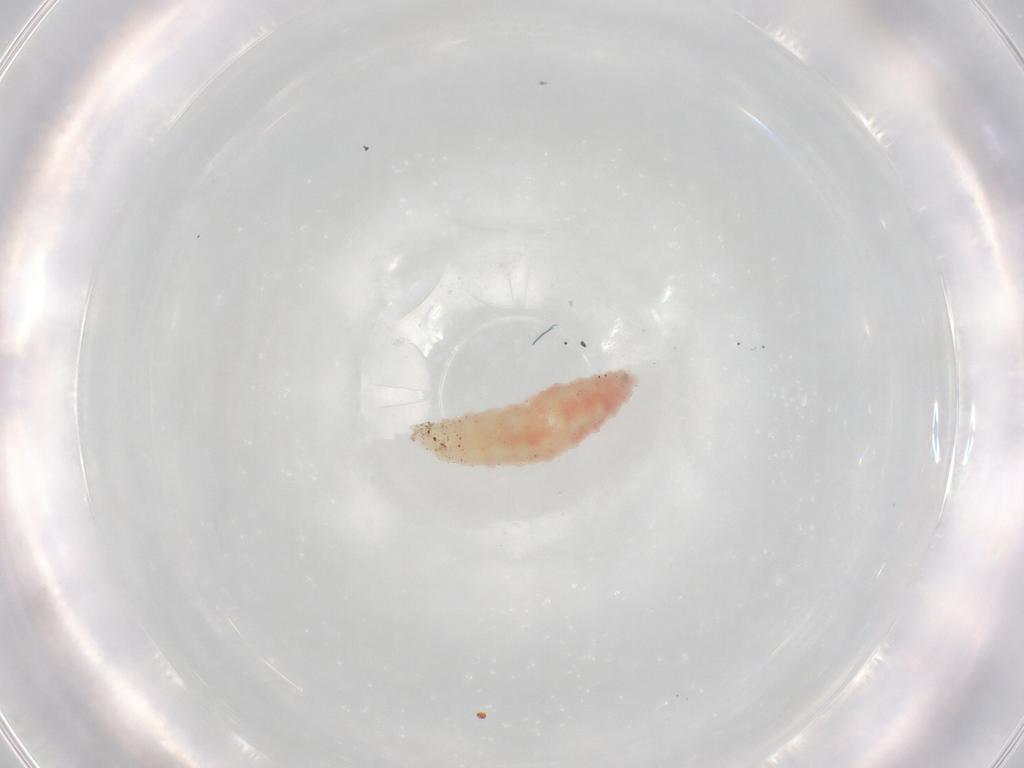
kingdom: Animalia
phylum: Arthropoda
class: Insecta
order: Diptera
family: Cecidomyiidae
